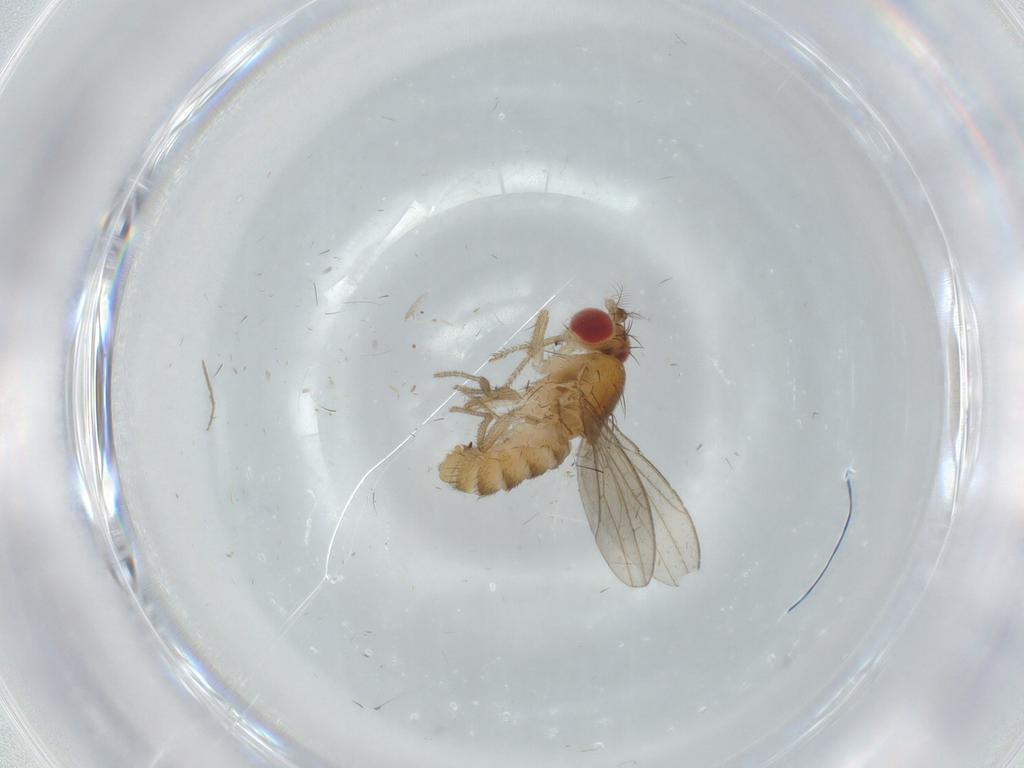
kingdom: Animalia
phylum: Arthropoda
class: Insecta
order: Diptera
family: Drosophilidae
